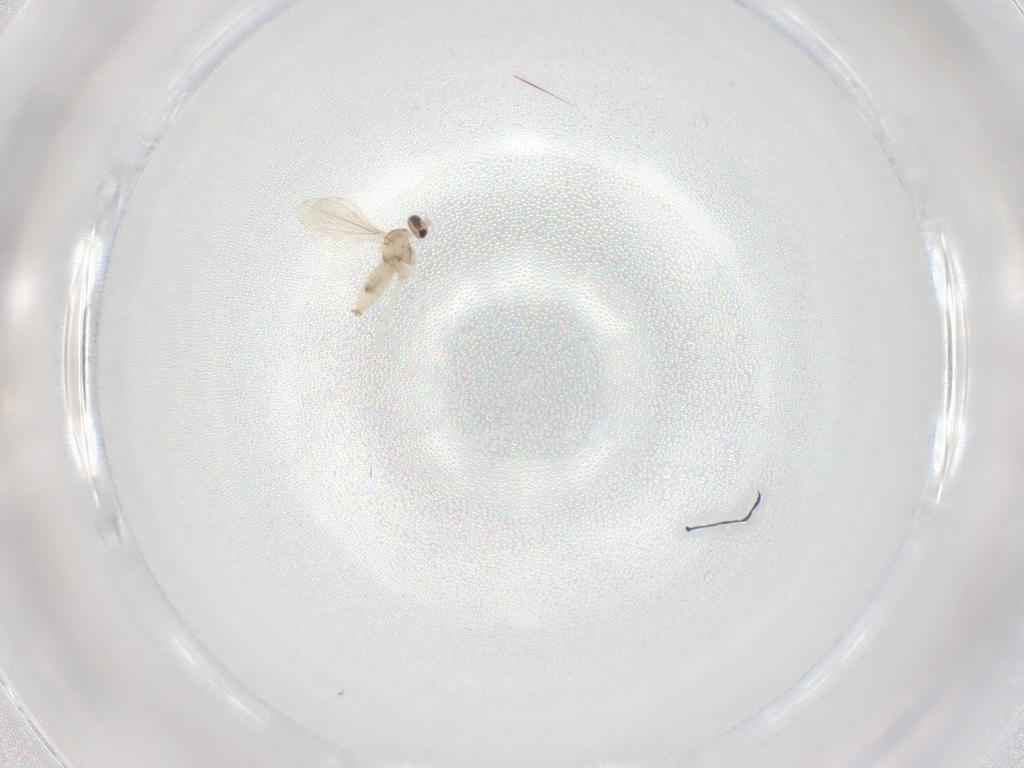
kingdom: Animalia
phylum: Arthropoda
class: Insecta
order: Diptera
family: Cecidomyiidae
